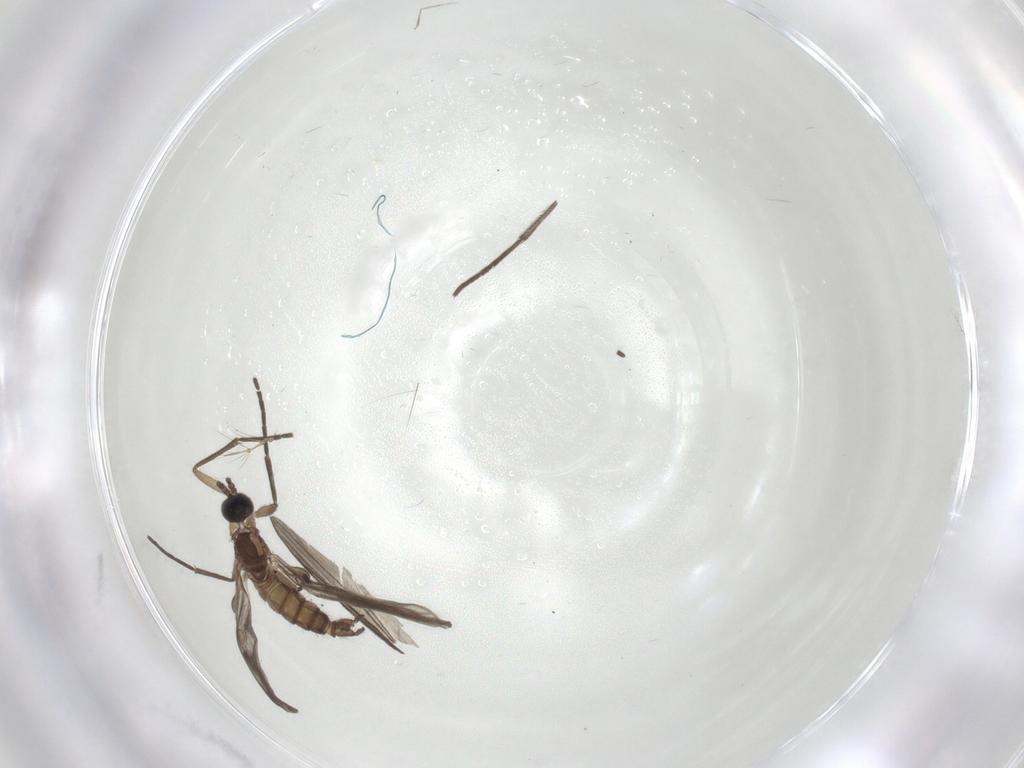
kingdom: Animalia
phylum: Arthropoda
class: Insecta
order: Diptera
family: Sciaridae
